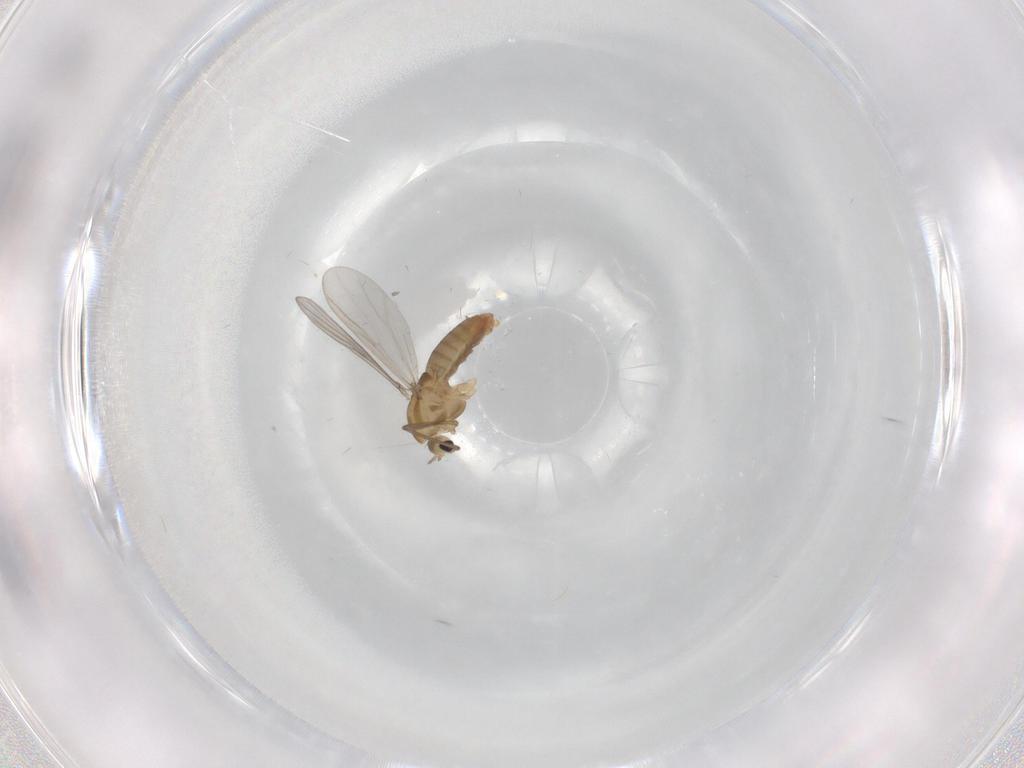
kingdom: Animalia
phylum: Arthropoda
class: Insecta
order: Diptera
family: Chironomidae
